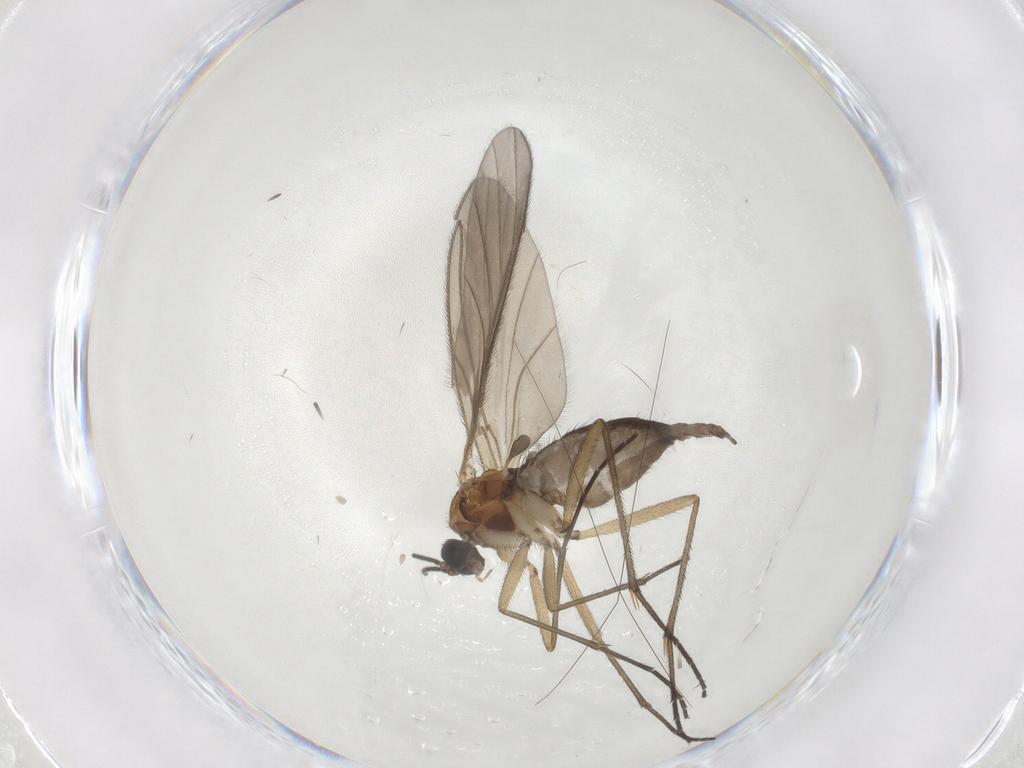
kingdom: Animalia
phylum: Arthropoda
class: Insecta
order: Diptera
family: Sciaridae
